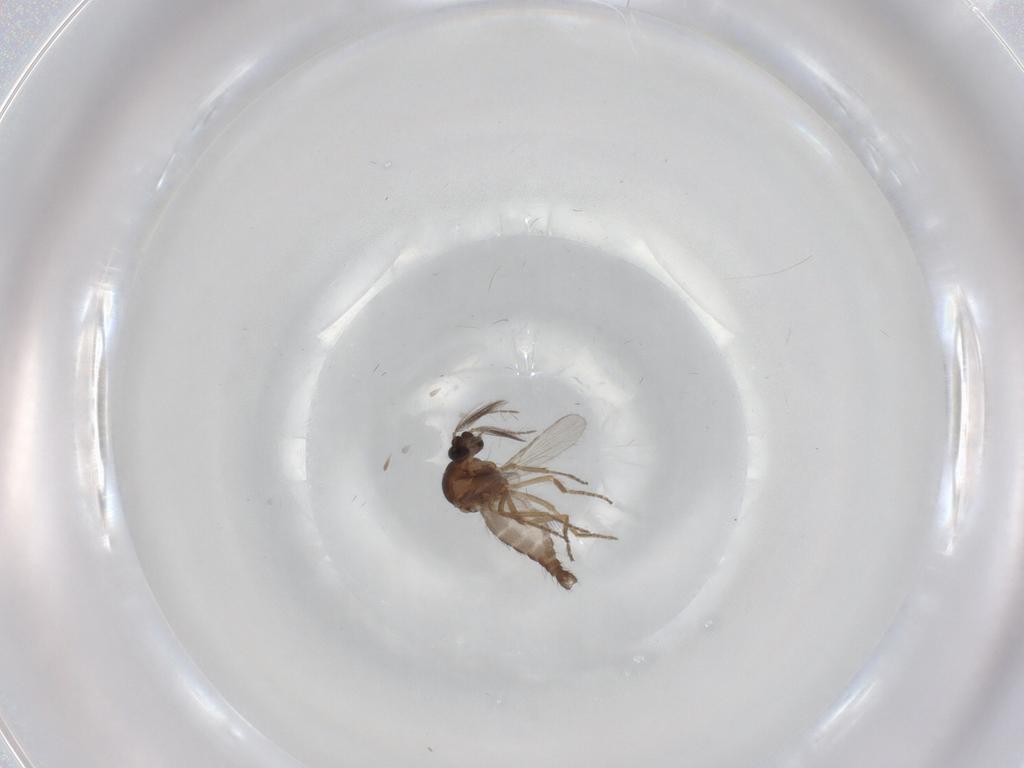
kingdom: Animalia
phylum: Arthropoda
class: Insecta
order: Diptera
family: Ceratopogonidae
